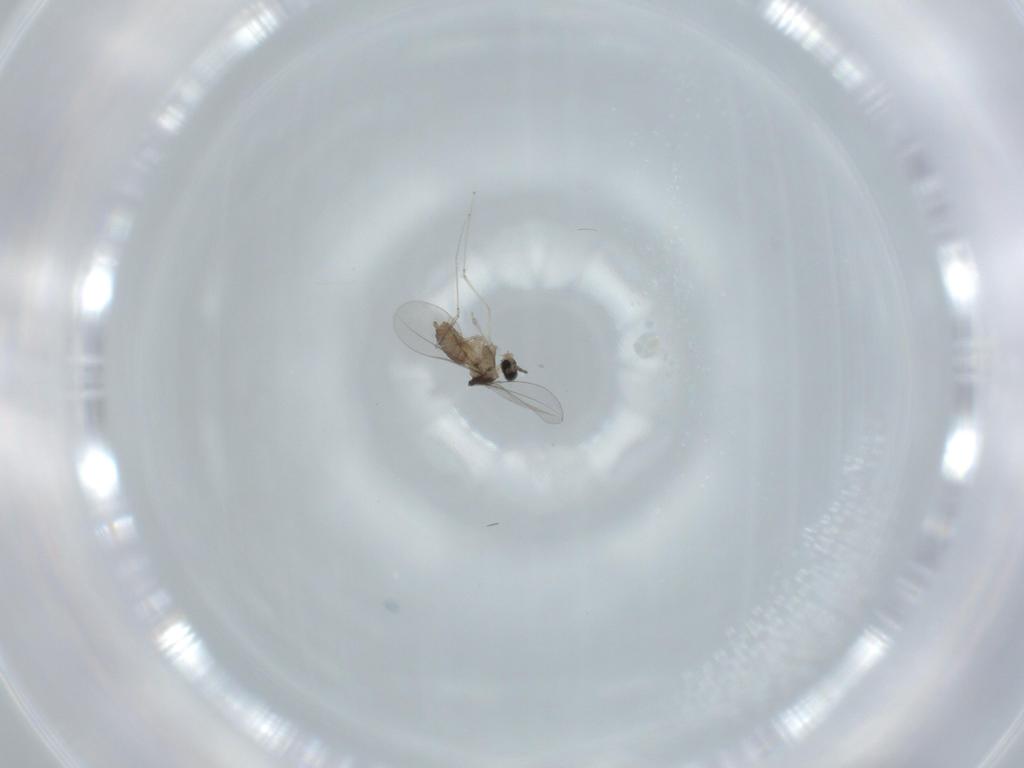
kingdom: Animalia
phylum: Arthropoda
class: Insecta
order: Diptera
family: Cecidomyiidae
